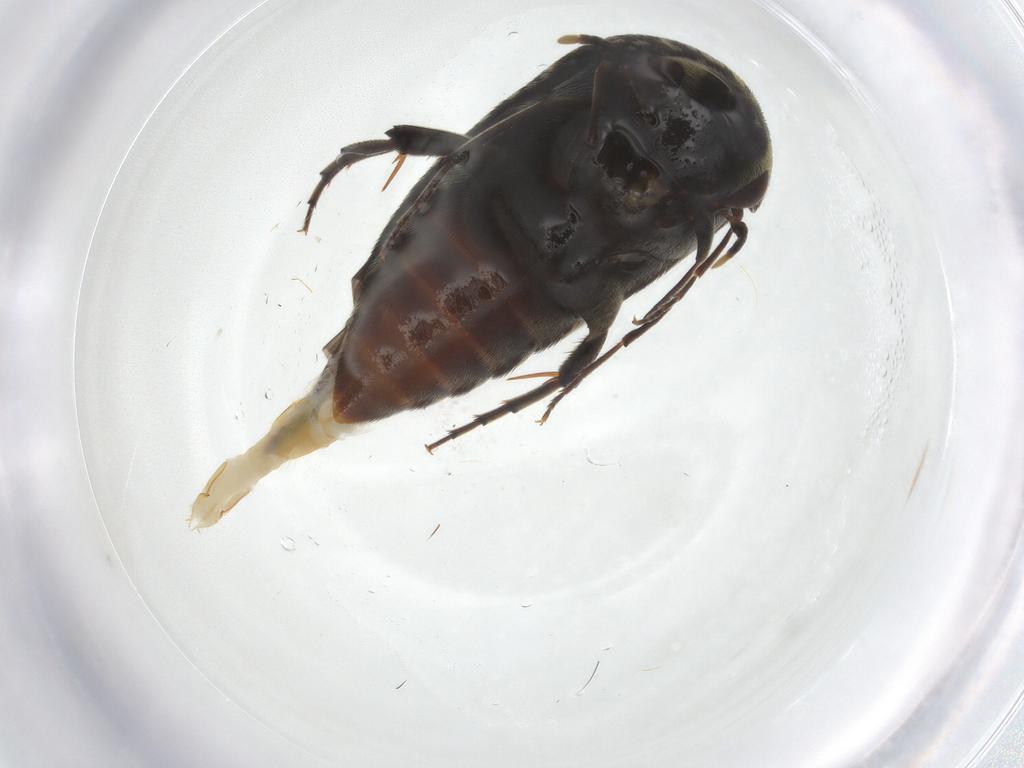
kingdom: Animalia
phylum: Arthropoda
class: Insecta
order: Coleoptera
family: Mordellidae
